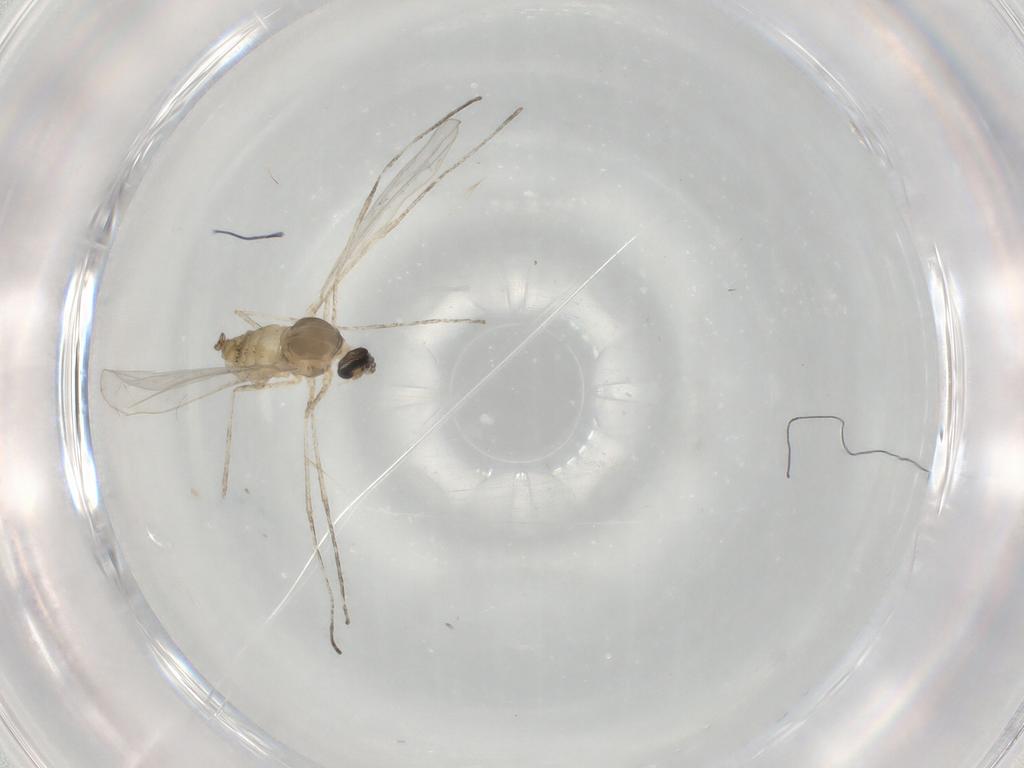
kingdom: Animalia
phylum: Arthropoda
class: Insecta
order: Diptera
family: Cecidomyiidae
